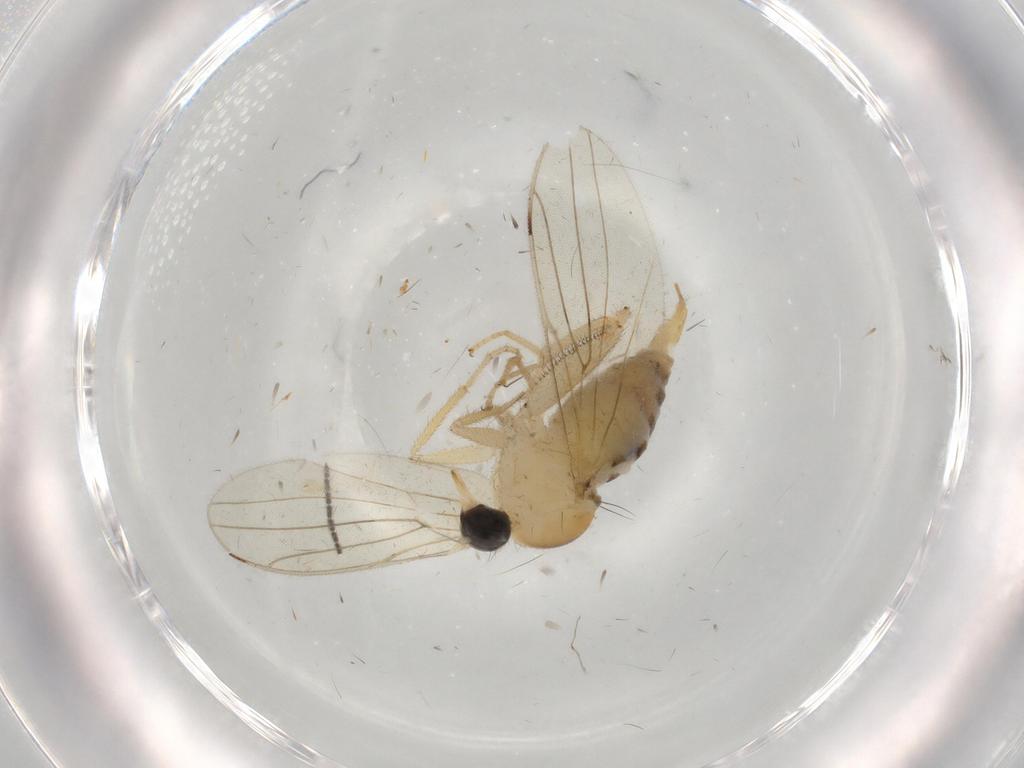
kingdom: Animalia
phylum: Arthropoda
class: Insecta
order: Diptera
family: Hybotidae
